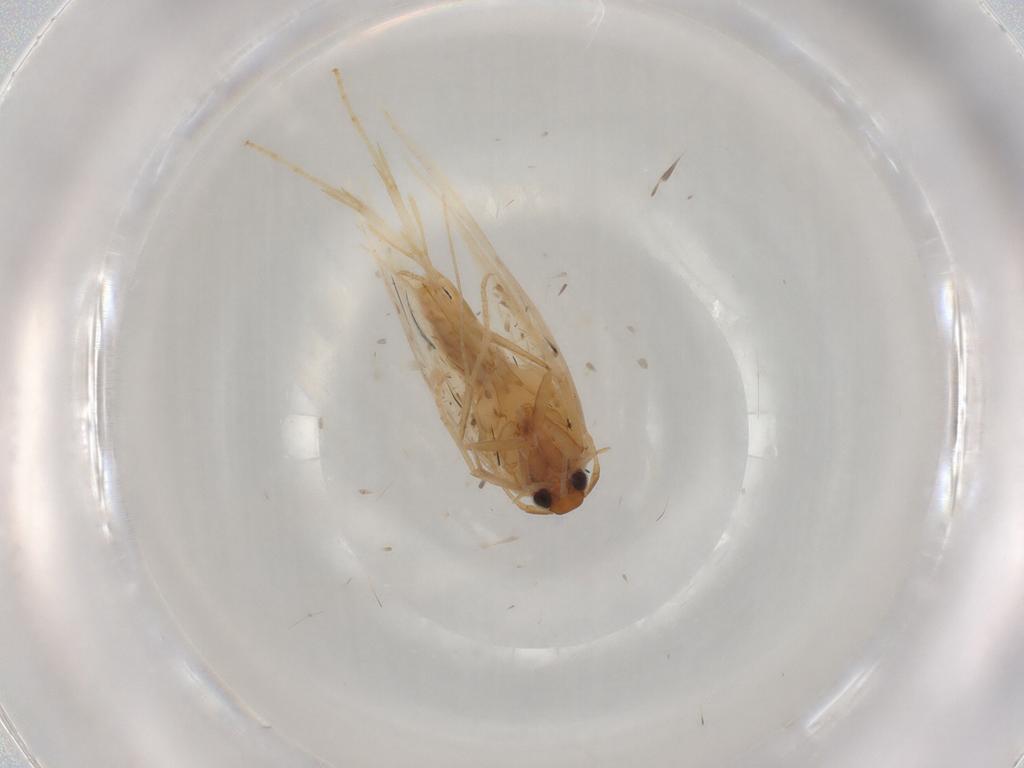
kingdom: Animalia
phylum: Arthropoda
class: Insecta
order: Lepidoptera
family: Gelechiidae
